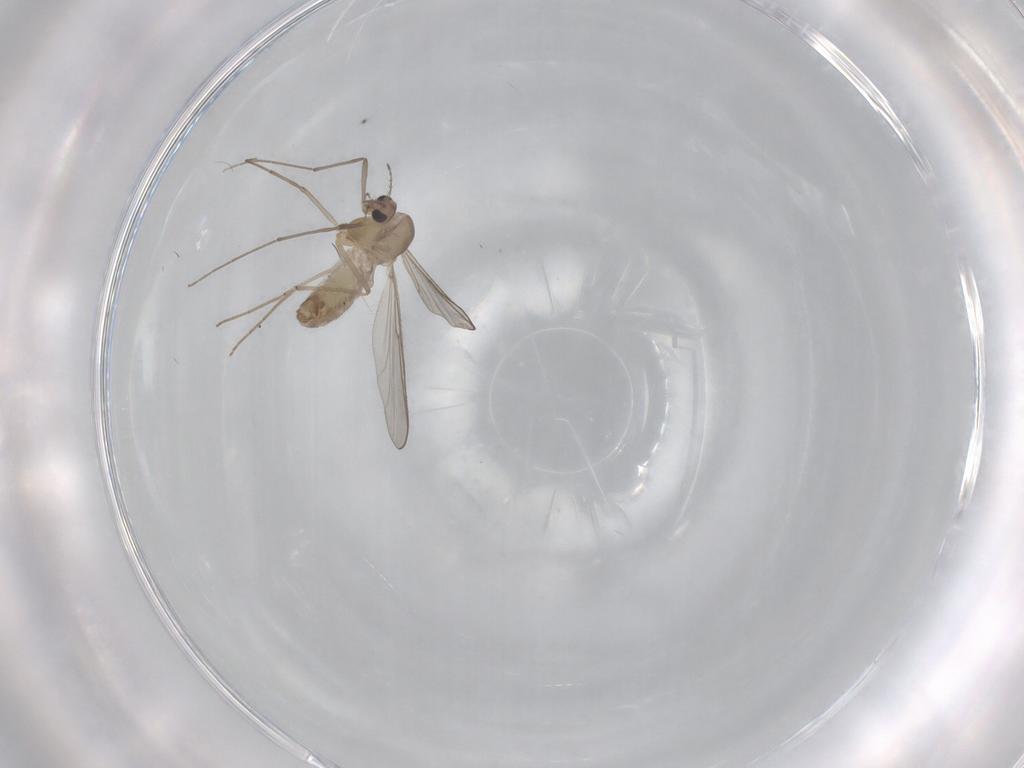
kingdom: Animalia
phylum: Arthropoda
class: Insecta
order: Diptera
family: Chironomidae
